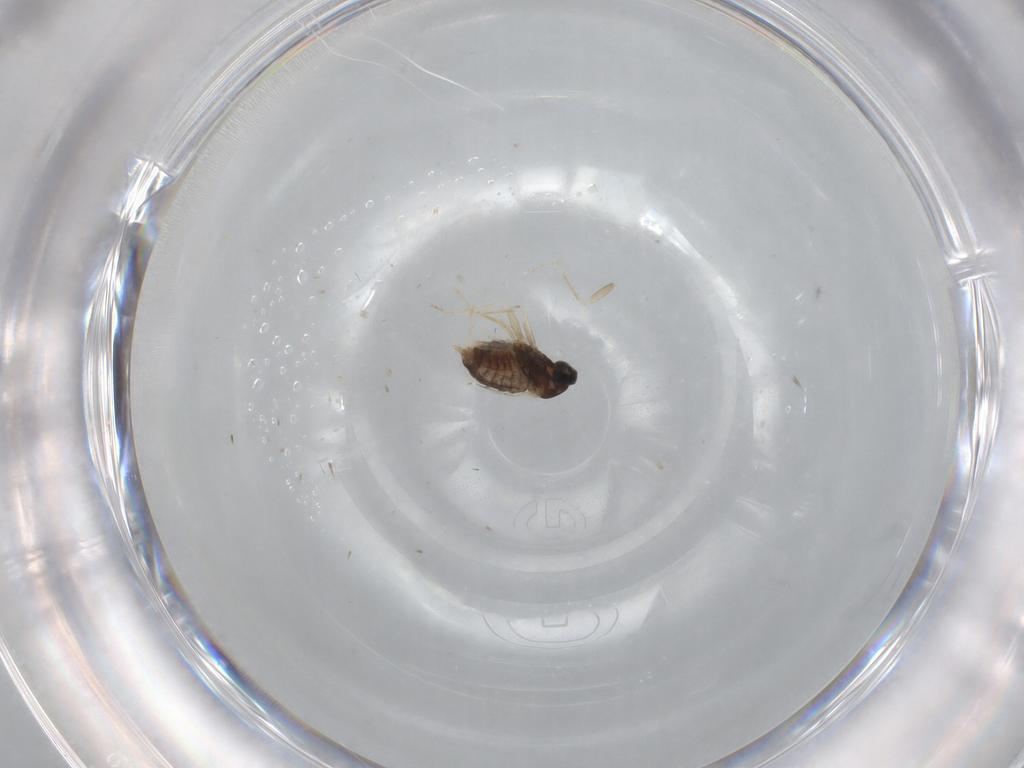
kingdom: Animalia
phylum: Arthropoda
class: Insecta
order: Diptera
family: Cecidomyiidae
